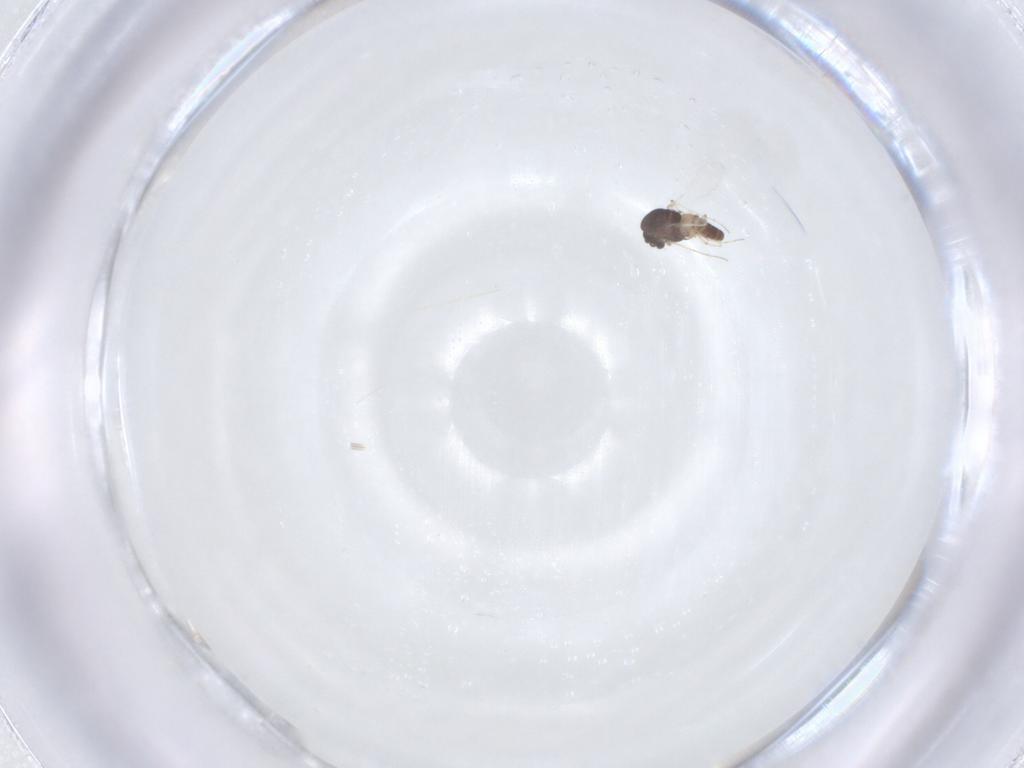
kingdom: Animalia
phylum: Arthropoda
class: Insecta
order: Diptera
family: Chironomidae
